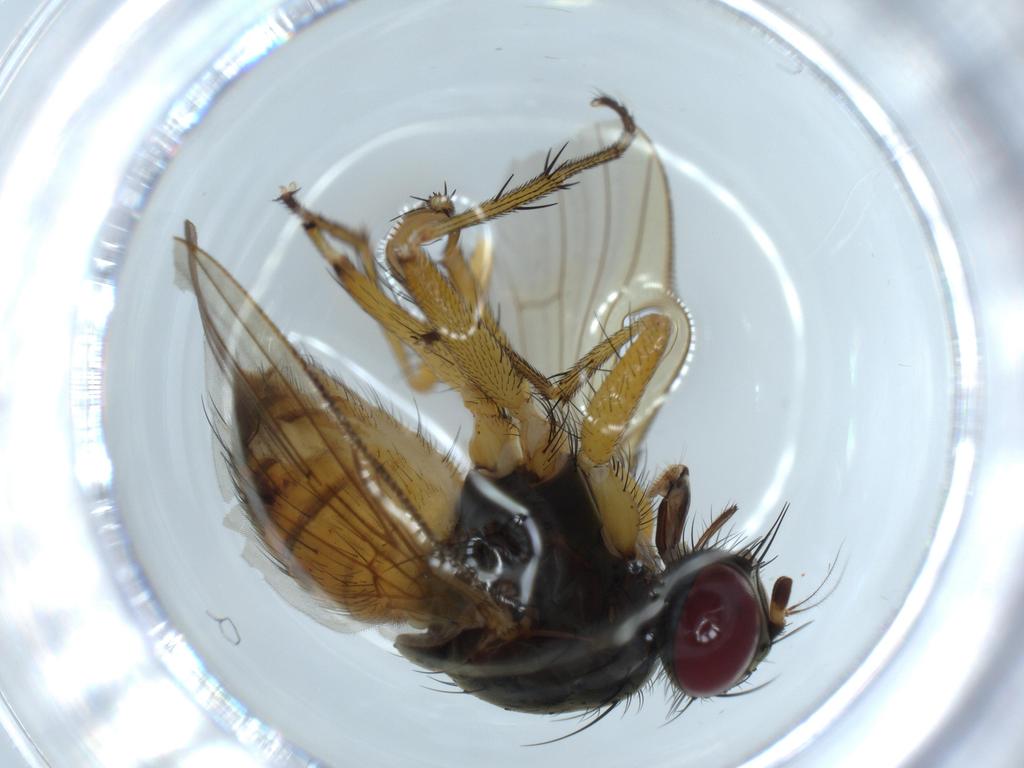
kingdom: Animalia
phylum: Arthropoda
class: Insecta
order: Diptera
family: Muscidae
